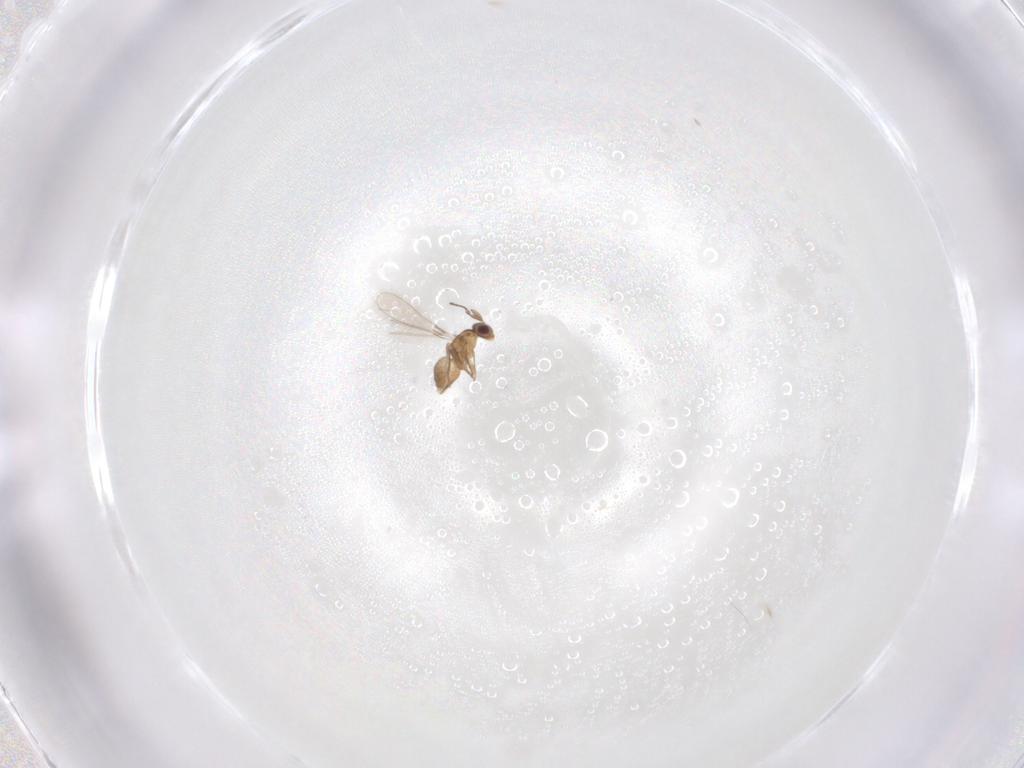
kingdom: Animalia
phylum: Arthropoda
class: Insecta
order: Hymenoptera
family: Mymaridae
